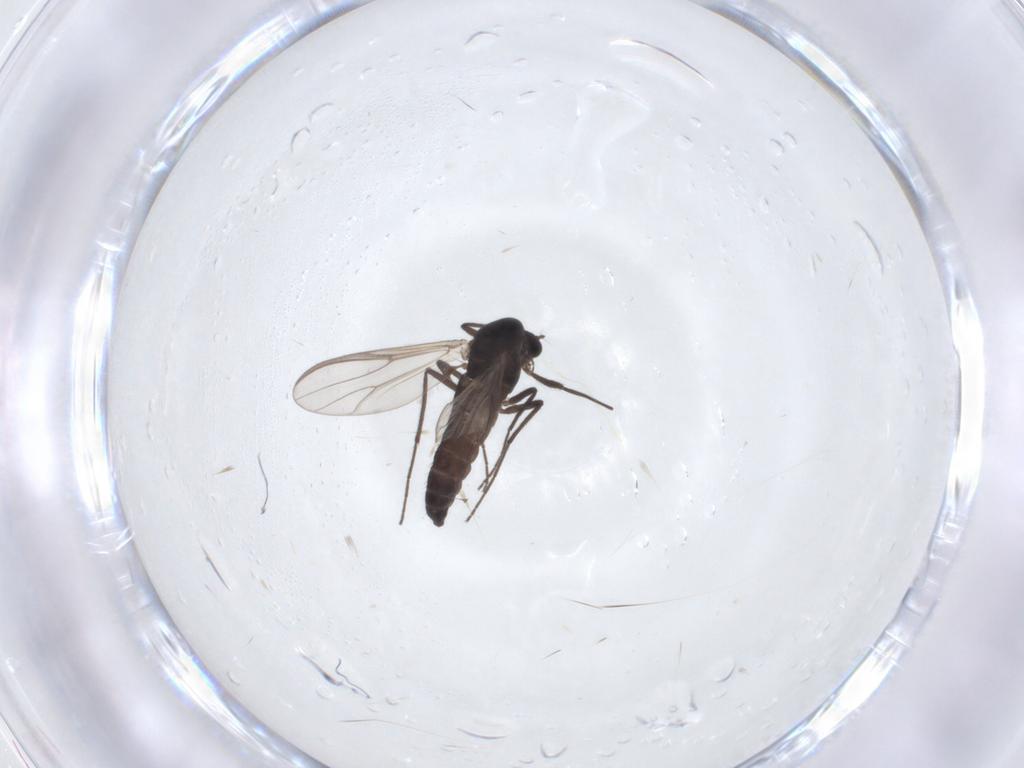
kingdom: Animalia
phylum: Arthropoda
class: Insecta
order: Diptera
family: Chironomidae
